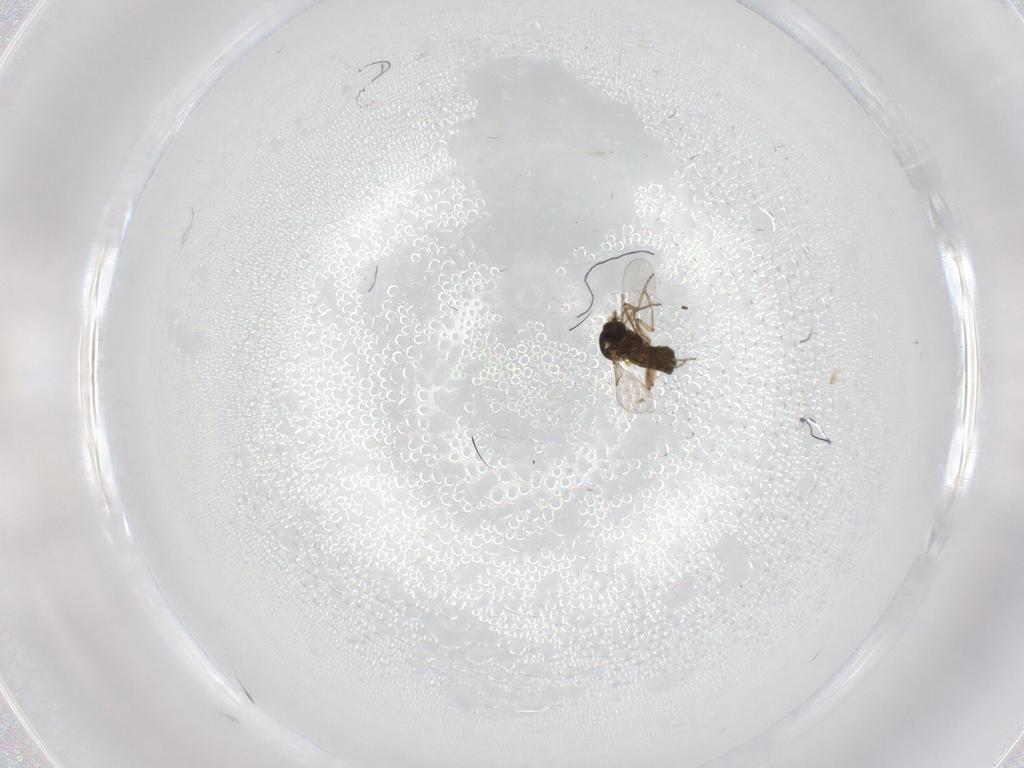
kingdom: Animalia
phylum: Arthropoda
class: Insecta
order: Diptera
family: Ceratopogonidae
